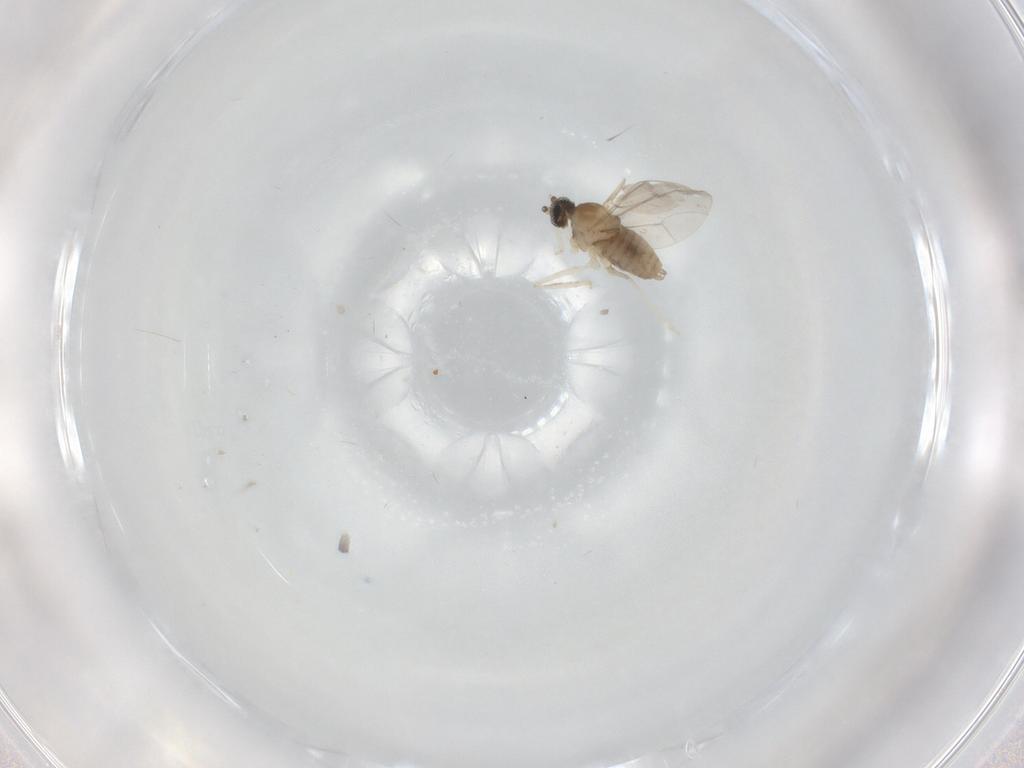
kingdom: Animalia
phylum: Arthropoda
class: Insecta
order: Diptera
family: Cecidomyiidae
